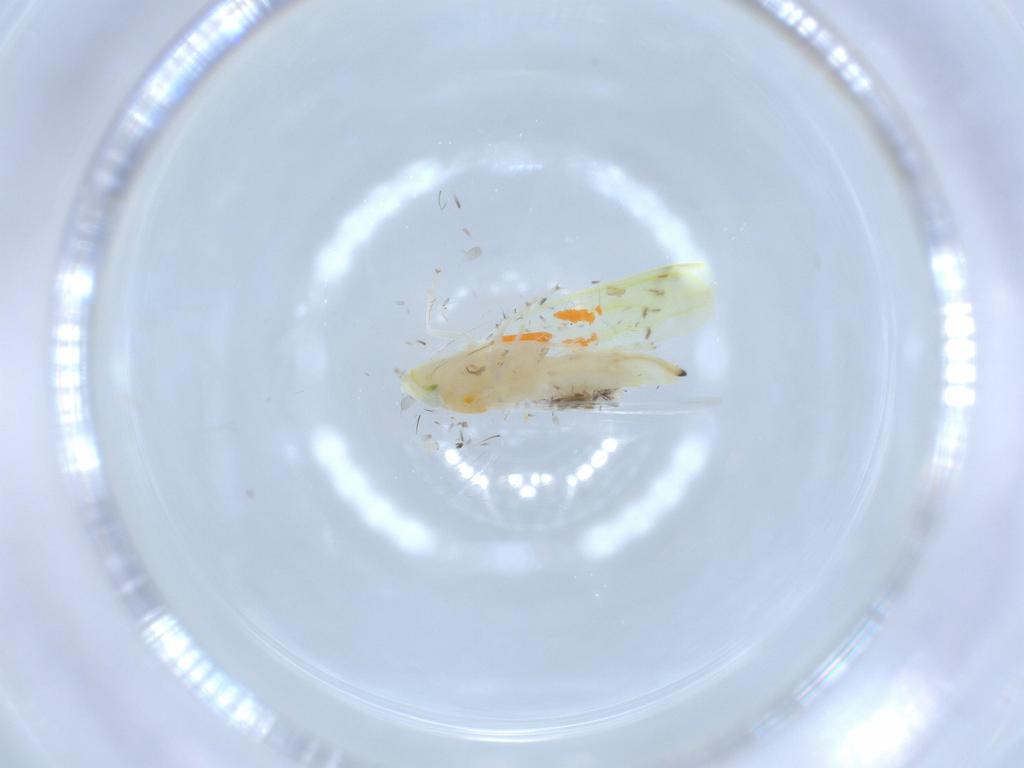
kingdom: Animalia
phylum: Arthropoda
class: Insecta
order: Hemiptera
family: Cicadellidae
